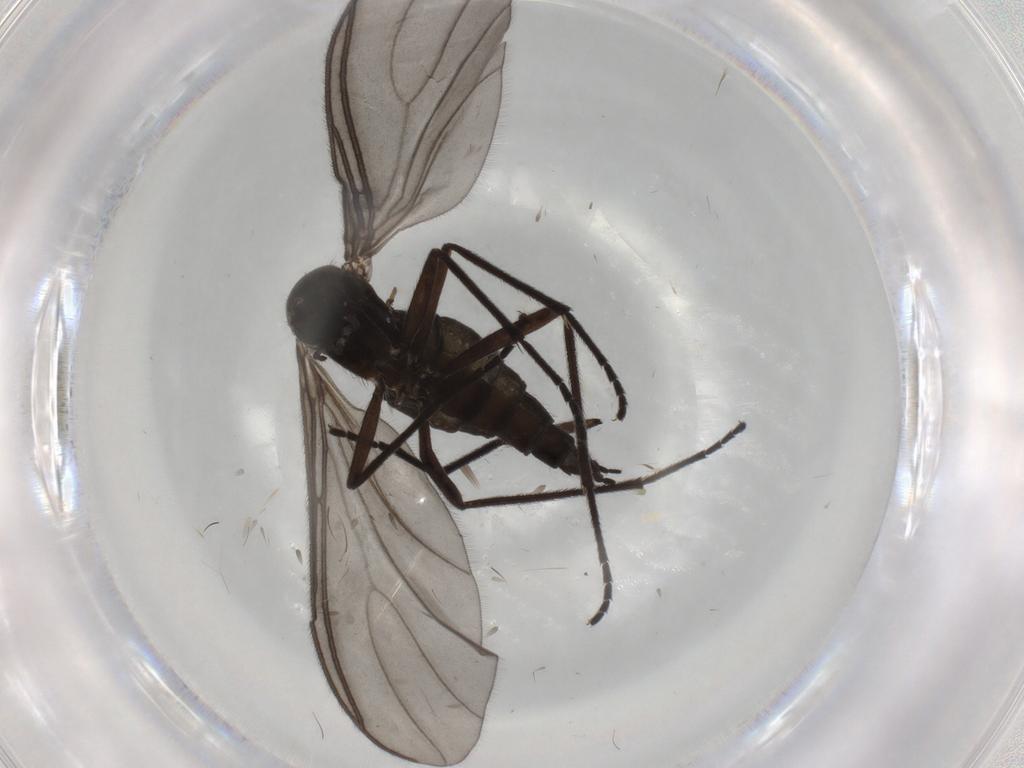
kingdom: Animalia
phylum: Arthropoda
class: Insecta
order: Diptera
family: Sciaridae
